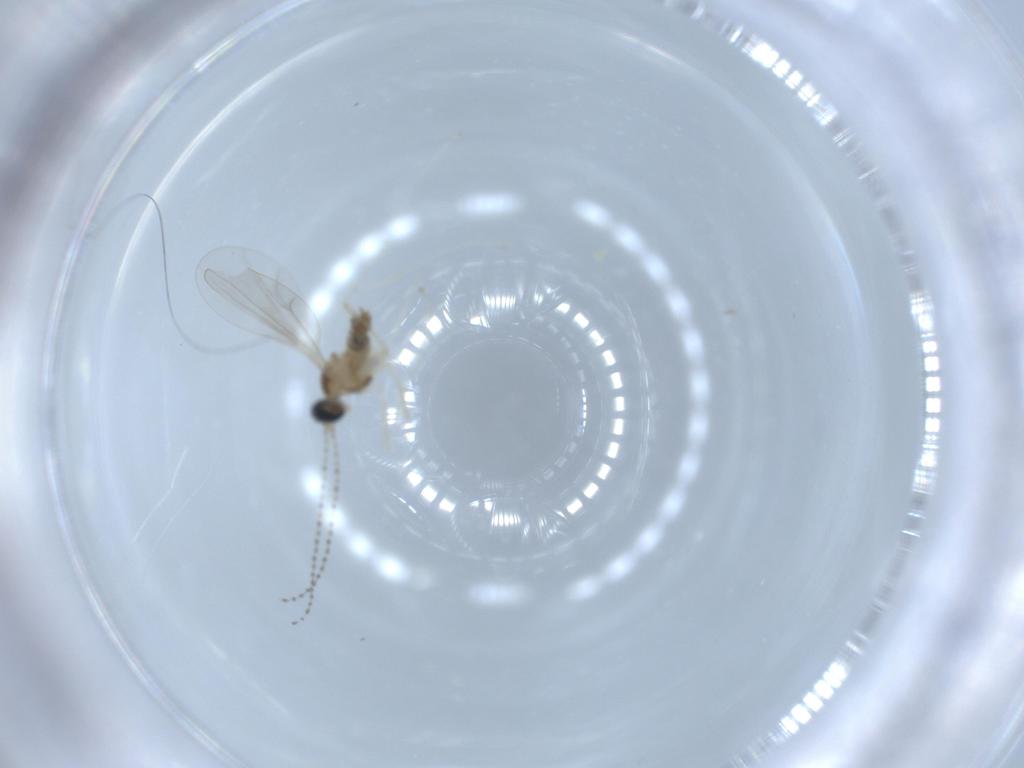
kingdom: Animalia
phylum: Arthropoda
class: Insecta
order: Diptera
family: Cecidomyiidae
